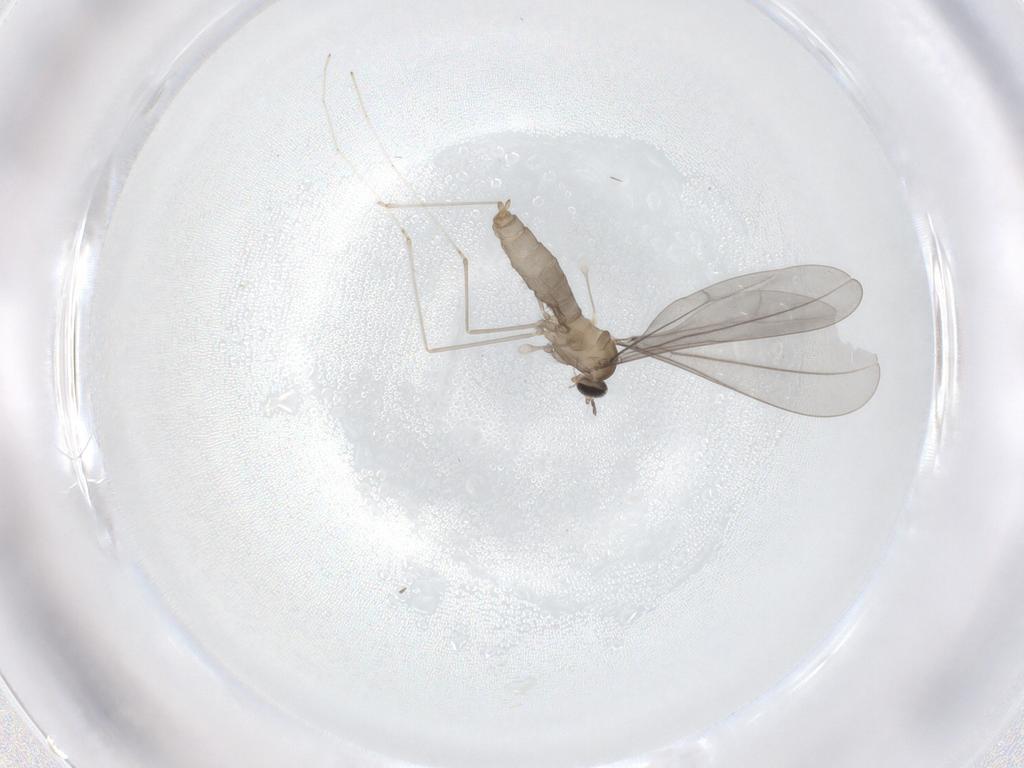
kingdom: Animalia
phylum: Arthropoda
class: Insecta
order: Diptera
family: Cecidomyiidae
